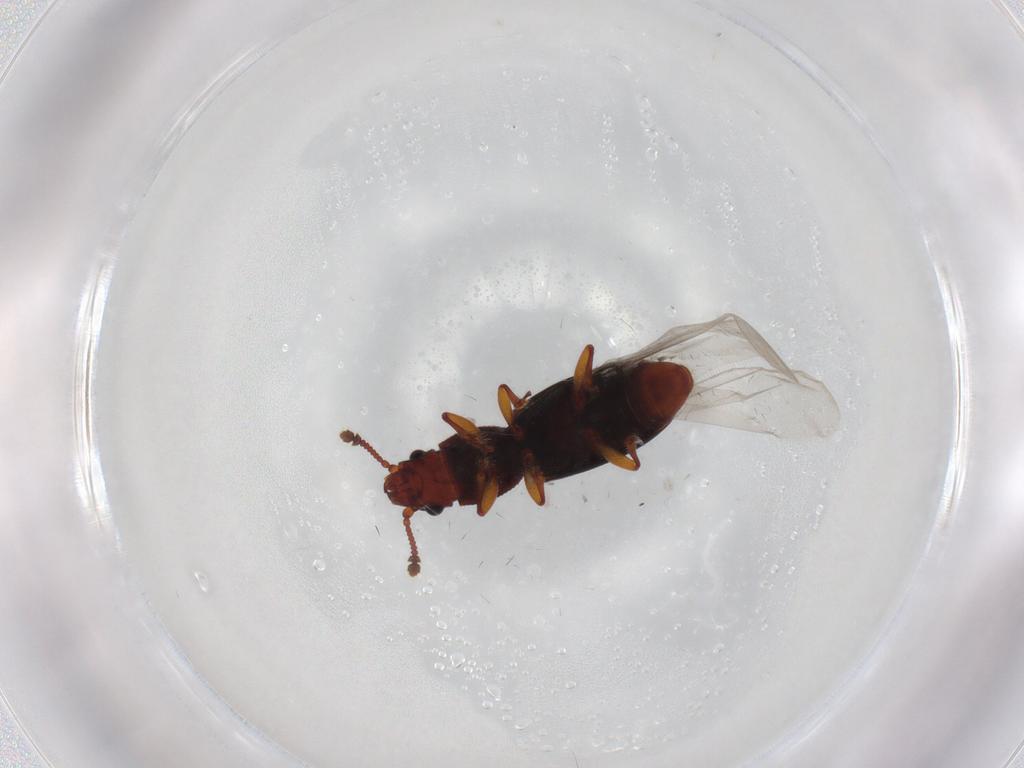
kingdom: Animalia
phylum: Arthropoda
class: Insecta
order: Coleoptera
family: Monotomidae
